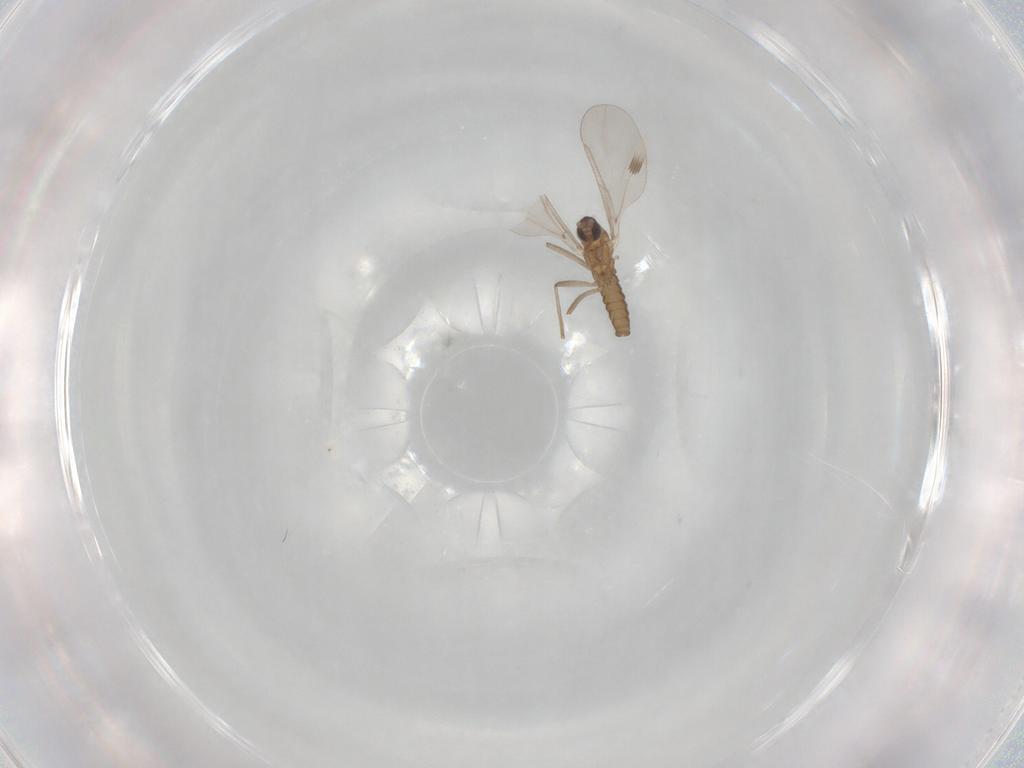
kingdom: Animalia
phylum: Arthropoda
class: Insecta
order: Diptera
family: Cecidomyiidae
